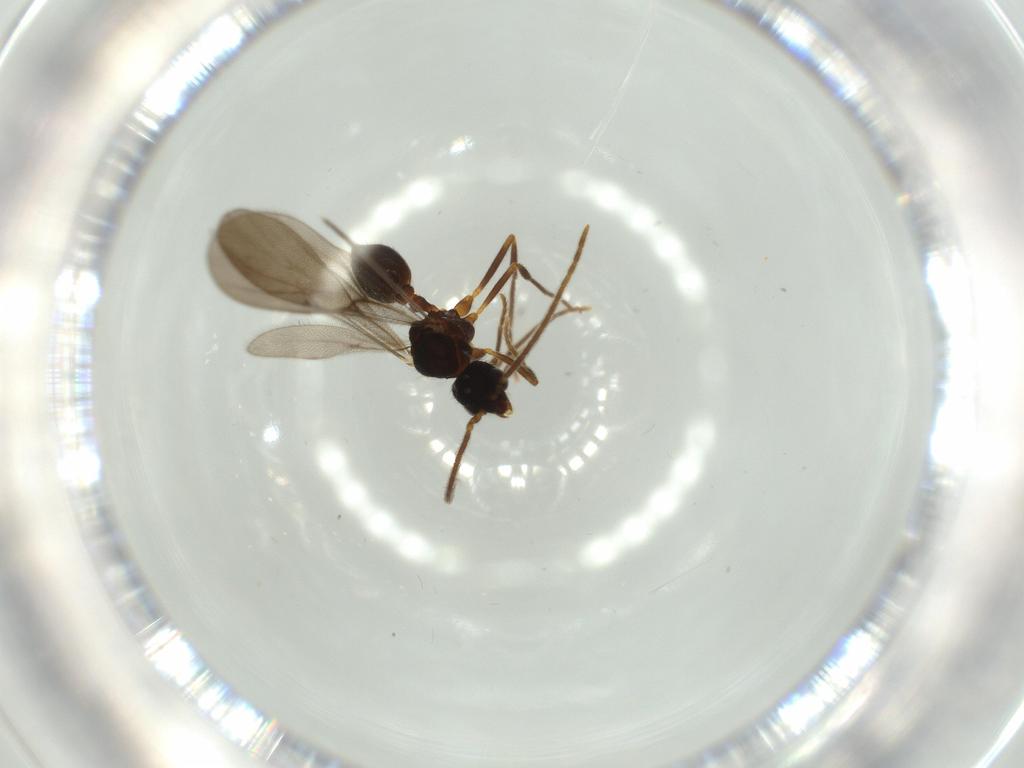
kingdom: Animalia
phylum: Arthropoda
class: Insecta
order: Hymenoptera
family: Formicidae
